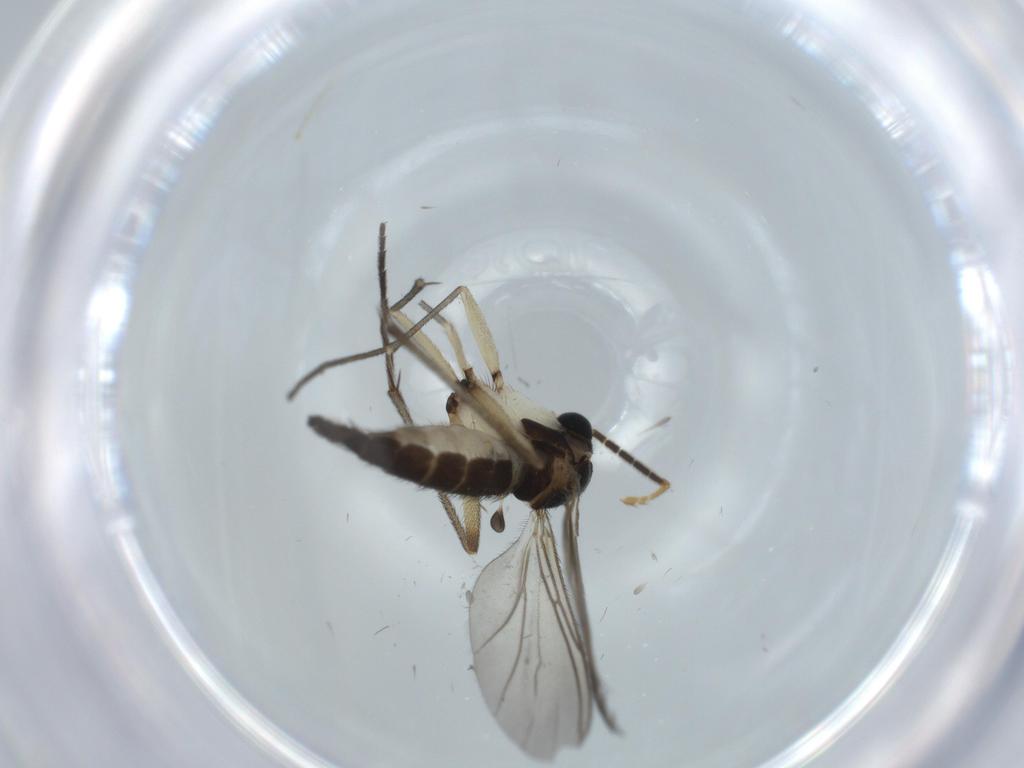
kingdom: Animalia
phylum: Arthropoda
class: Insecta
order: Diptera
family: Sciaridae
